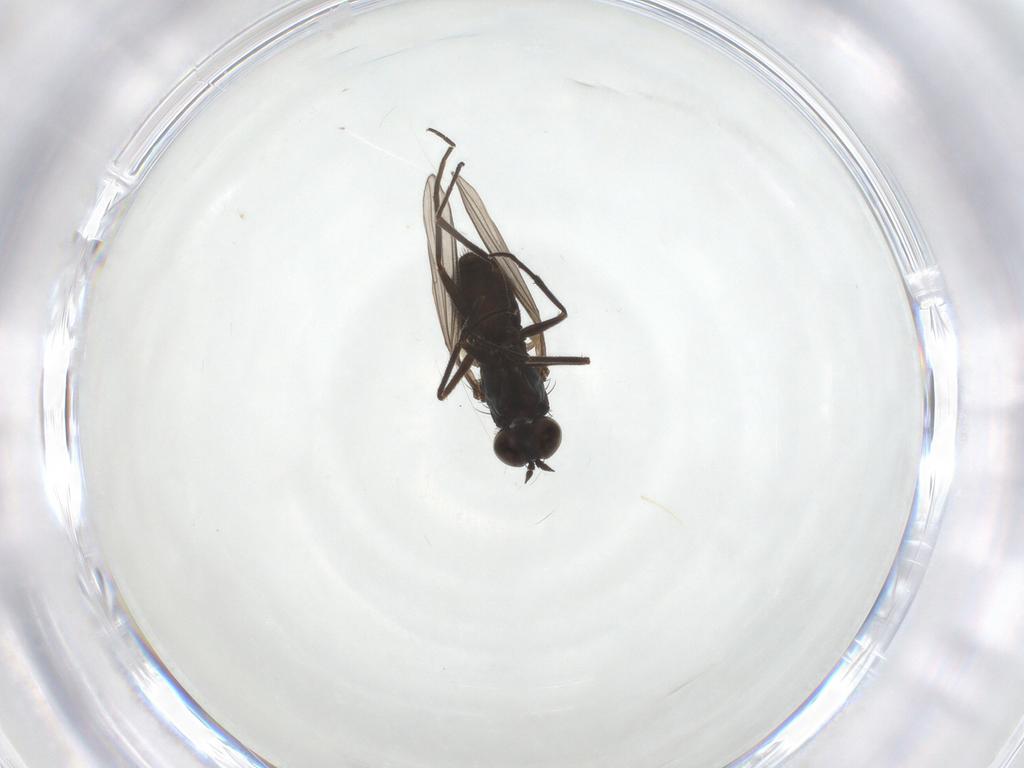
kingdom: Animalia
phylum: Arthropoda
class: Insecta
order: Diptera
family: Dolichopodidae
